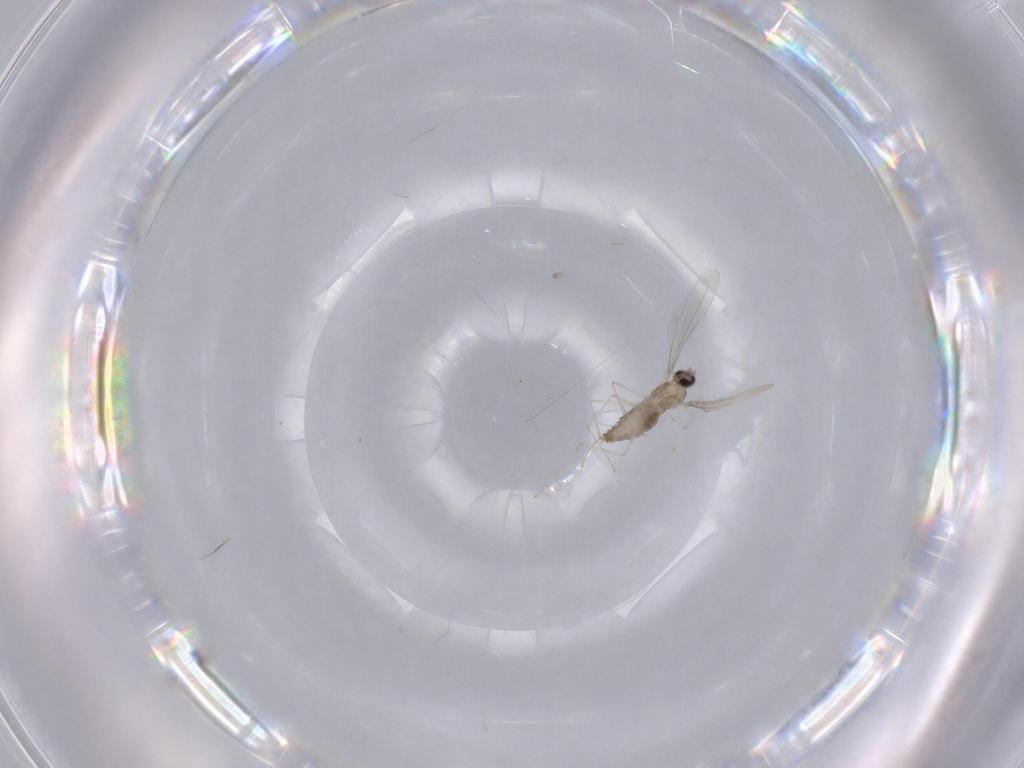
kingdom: Animalia
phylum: Arthropoda
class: Insecta
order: Diptera
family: Cecidomyiidae
